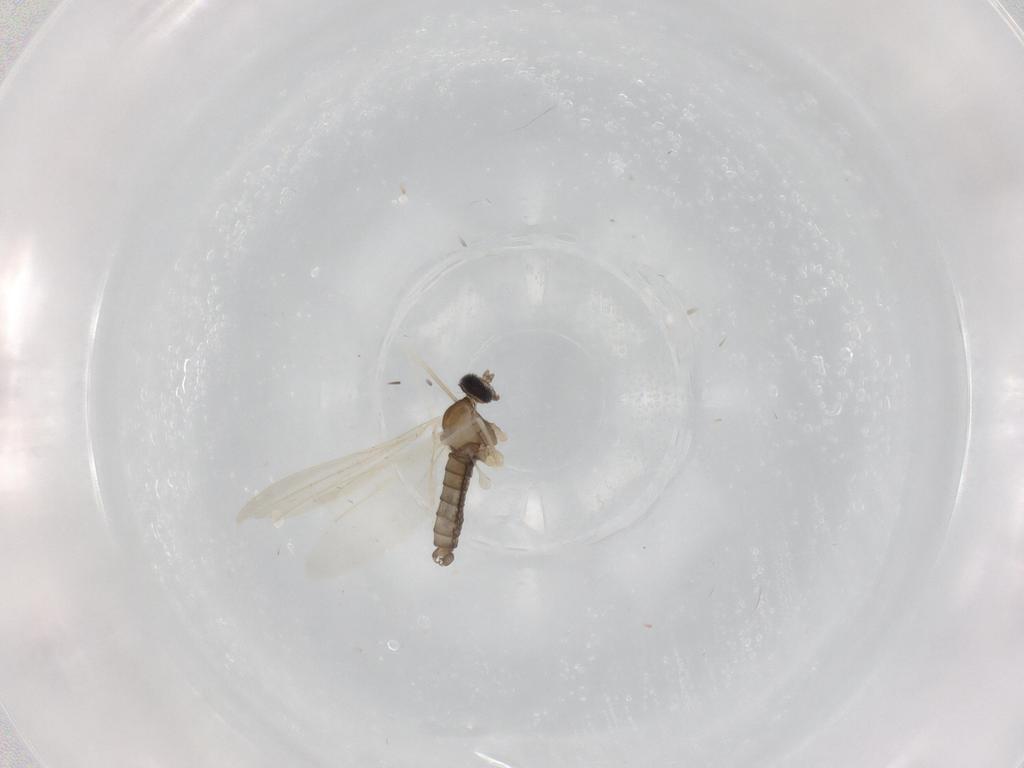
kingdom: Animalia
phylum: Arthropoda
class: Insecta
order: Diptera
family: Cecidomyiidae
